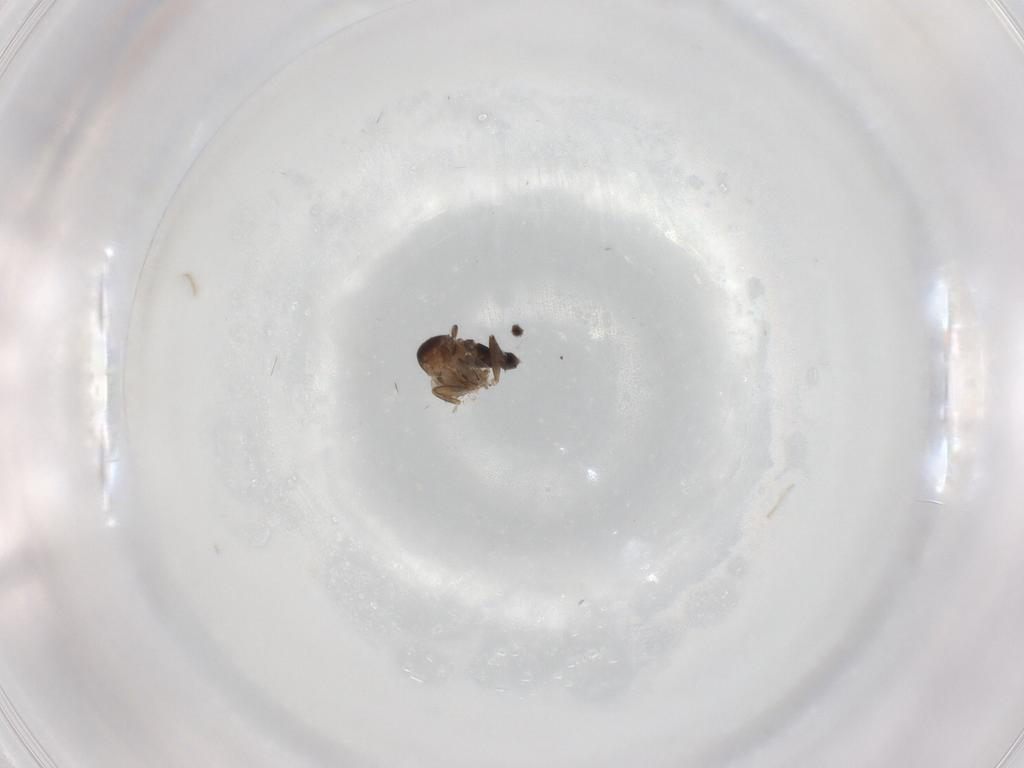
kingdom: Animalia
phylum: Arthropoda
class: Insecta
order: Diptera
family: Phoridae
